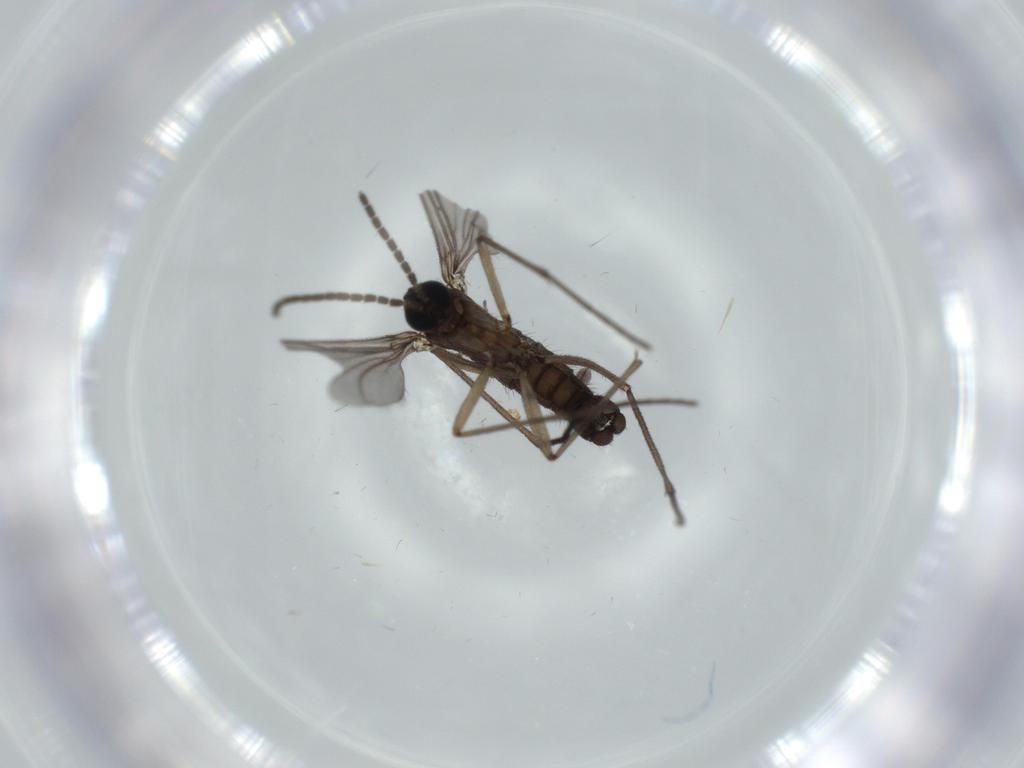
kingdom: Animalia
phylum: Arthropoda
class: Insecta
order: Diptera
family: Sciaridae
